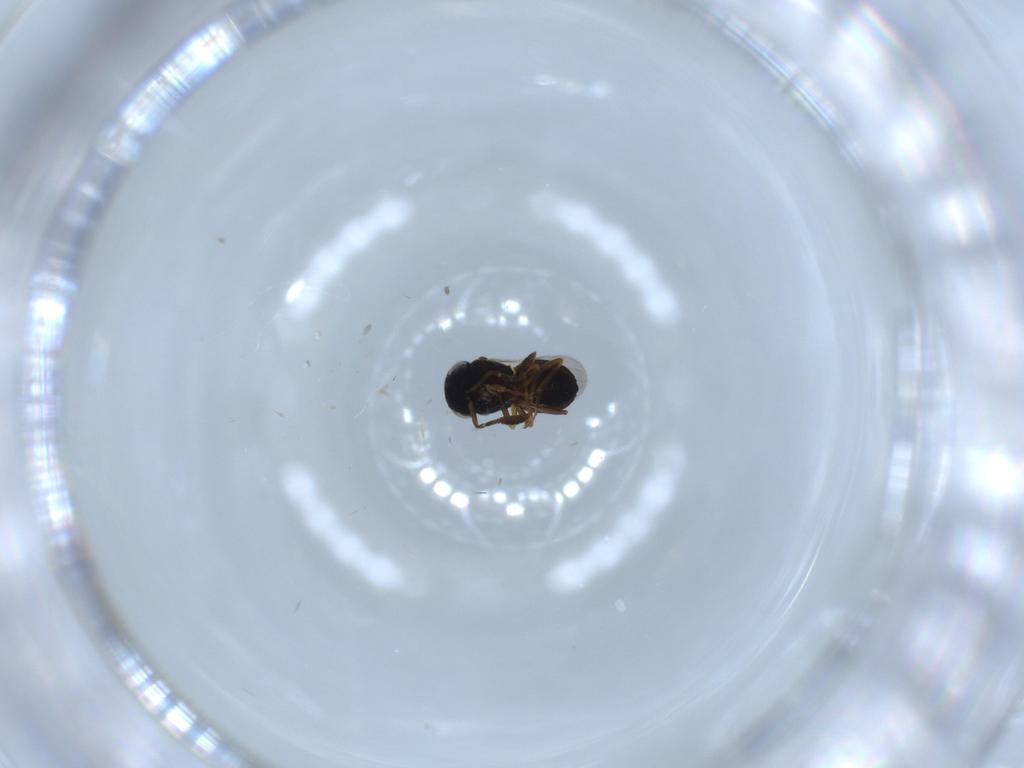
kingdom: Animalia
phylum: Arthropoda
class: Insecta
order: Hymenoptera
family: Scelionidae
